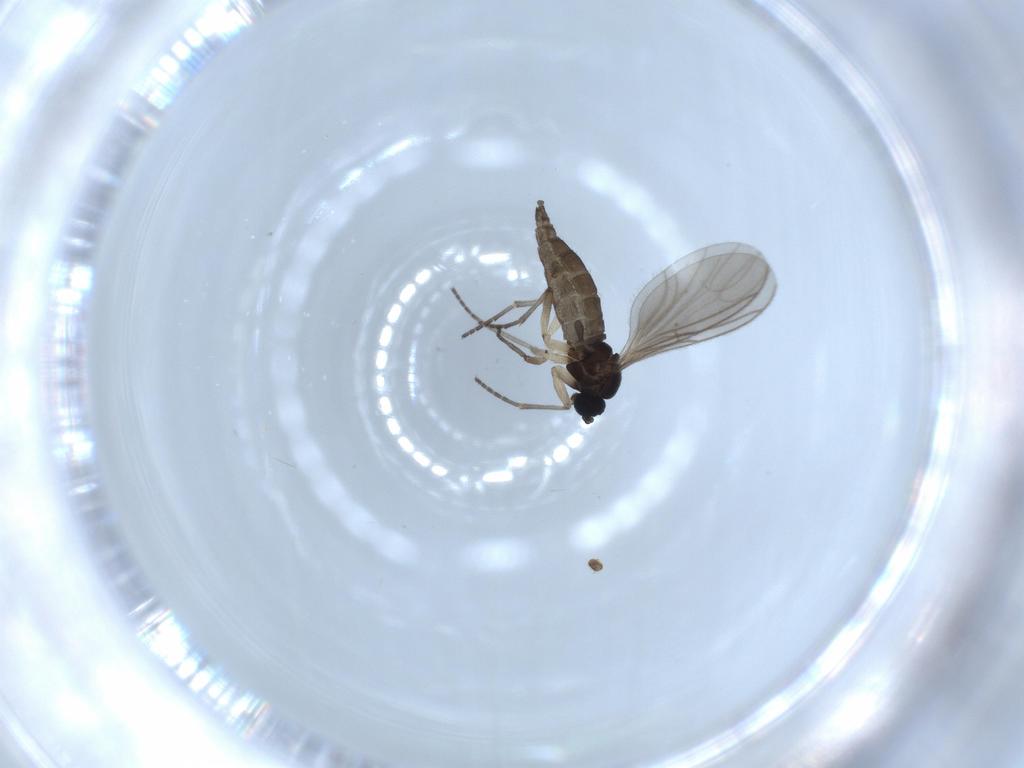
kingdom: Animalia
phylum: Arthropoda
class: Insecta
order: Diptera
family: Sciaridae
